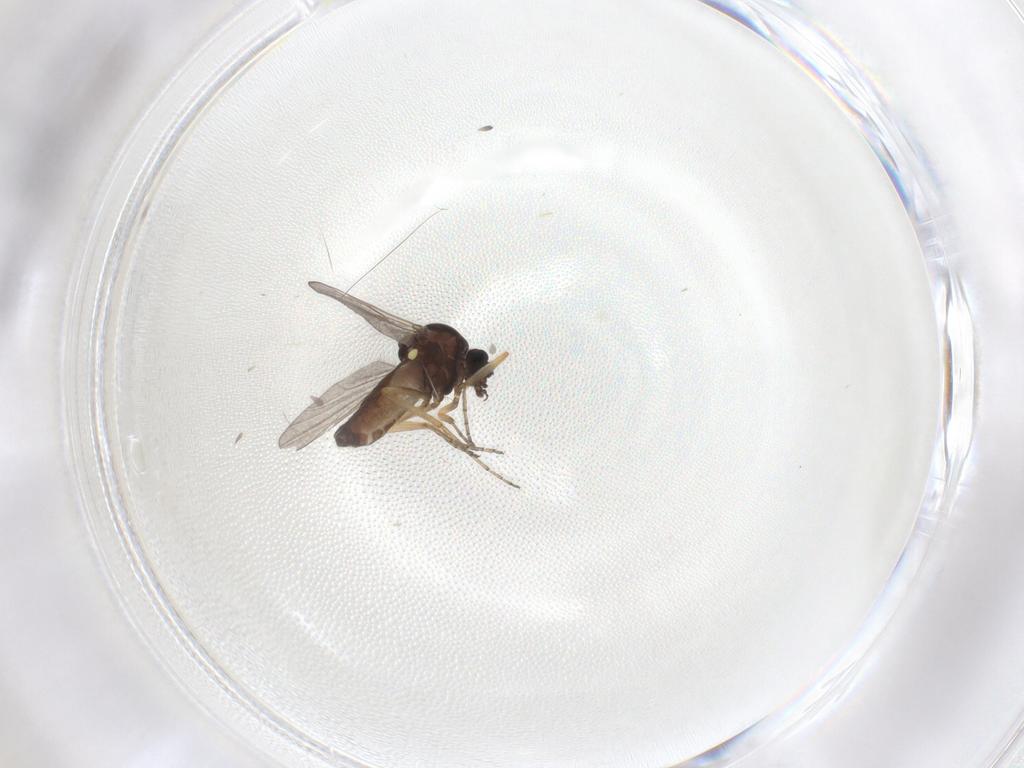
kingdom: Animalia
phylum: Arthropoda
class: Insecta
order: Diptera
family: Ceratopogonidae
